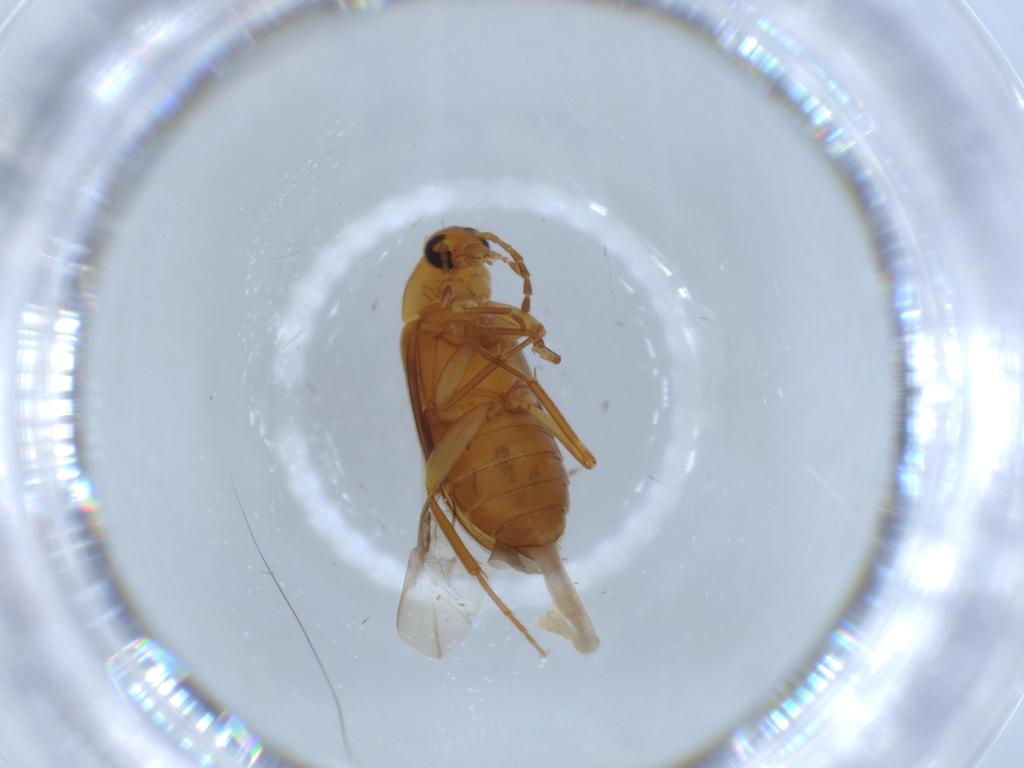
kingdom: Animalia
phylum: Arthropoda
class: Insecta
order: Coleoptera
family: Scraptiidae
